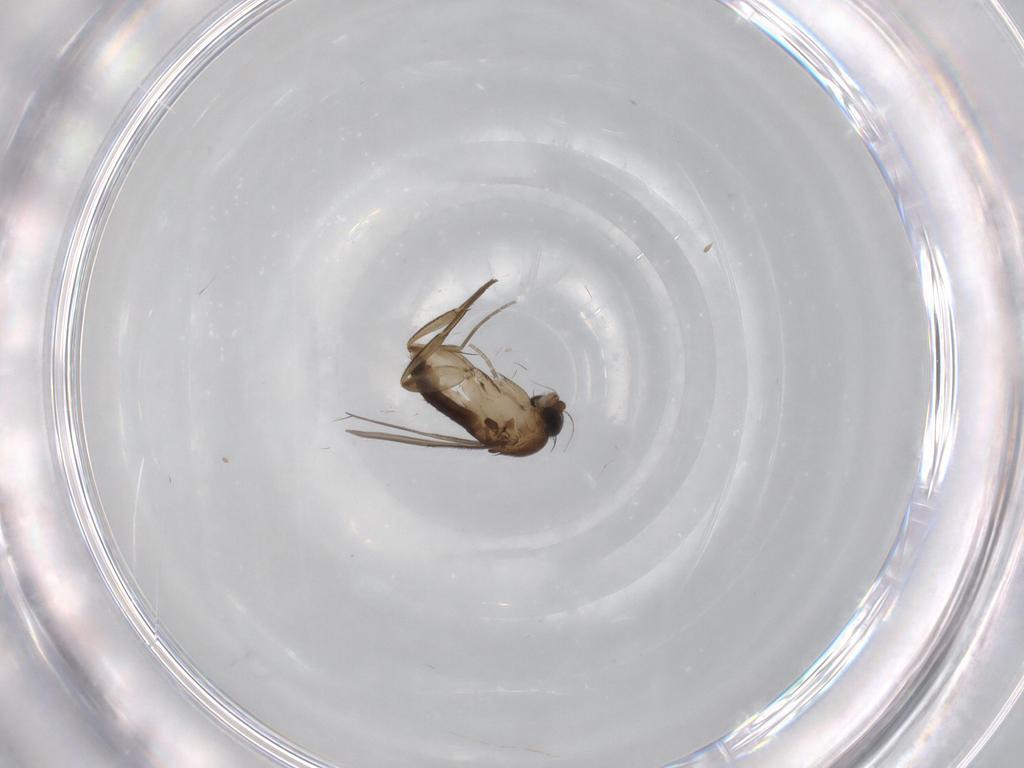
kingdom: Animalia
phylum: Arthropoda
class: Insecta
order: Diptera
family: Phoridae
